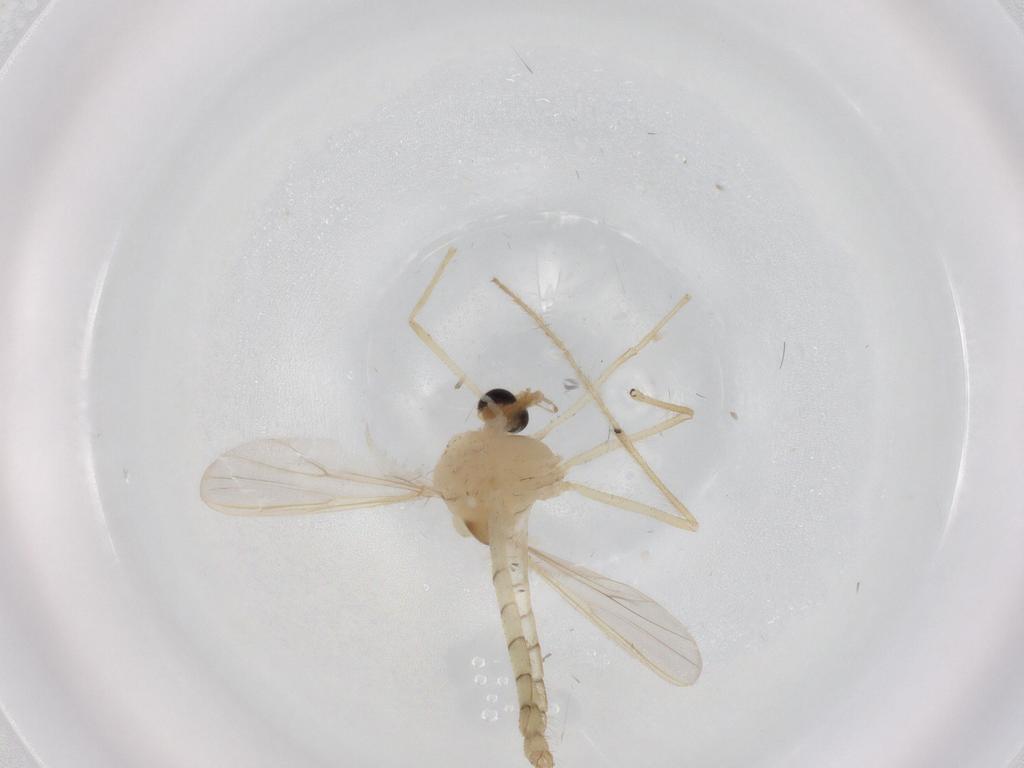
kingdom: Animalia
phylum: Arthropoda
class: Insecta
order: Diptera
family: Chironomidae
